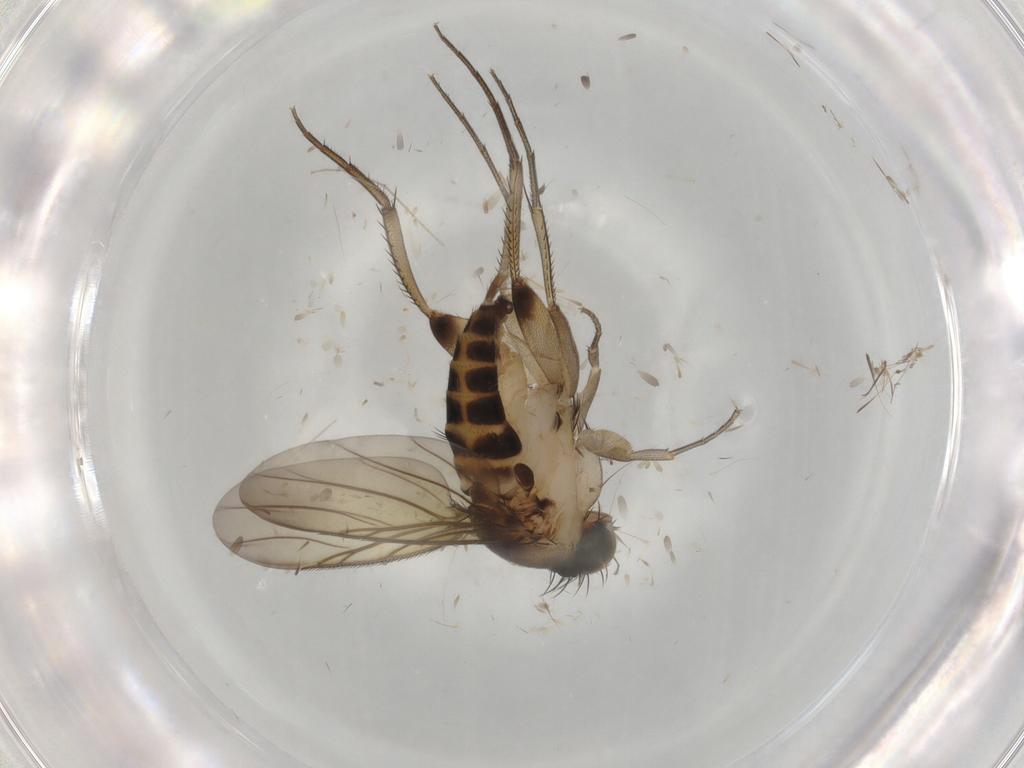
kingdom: Animalia
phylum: Arthropoda
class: Insecta
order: Diptera
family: Phoridae
